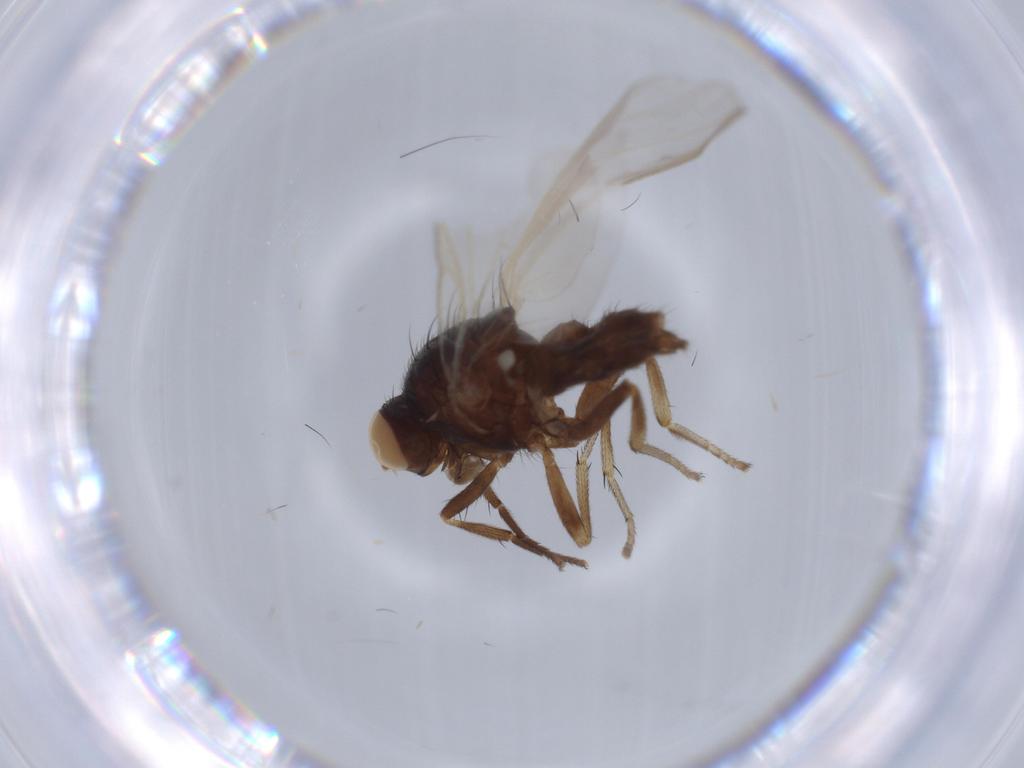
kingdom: Animalia
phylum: Arthropoda
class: Insecta
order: Diptera
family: Lauxaniidae
